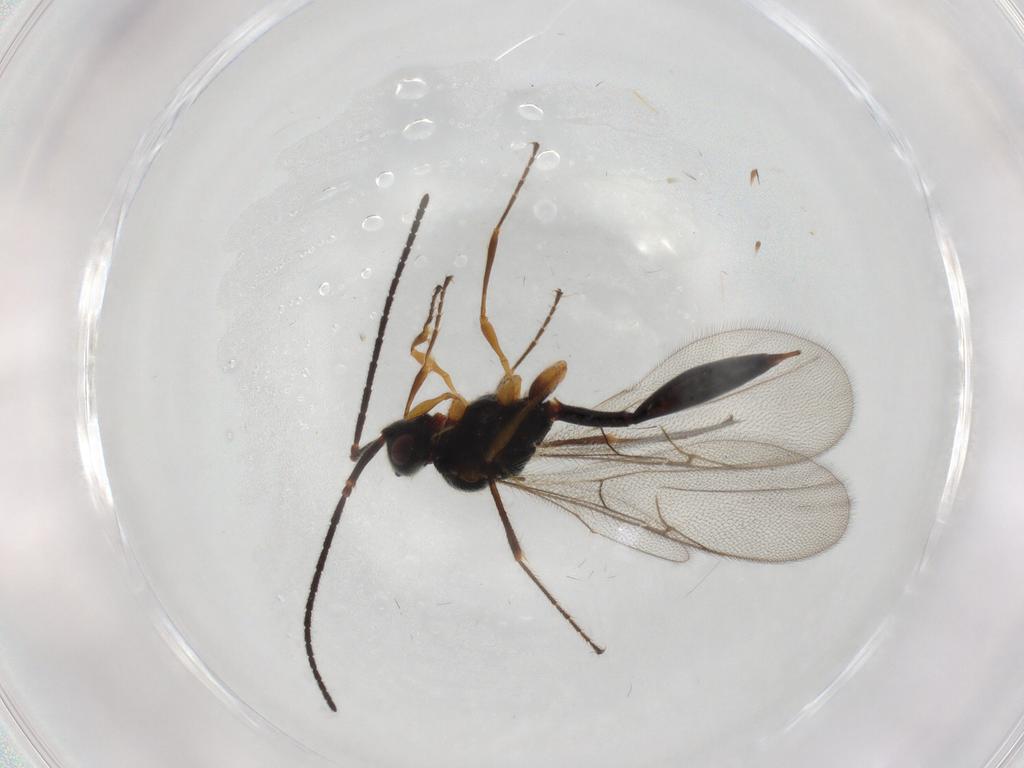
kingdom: Animalia
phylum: Arthropoda
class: Insecta
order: Hymenoptera
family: Diapriidae
